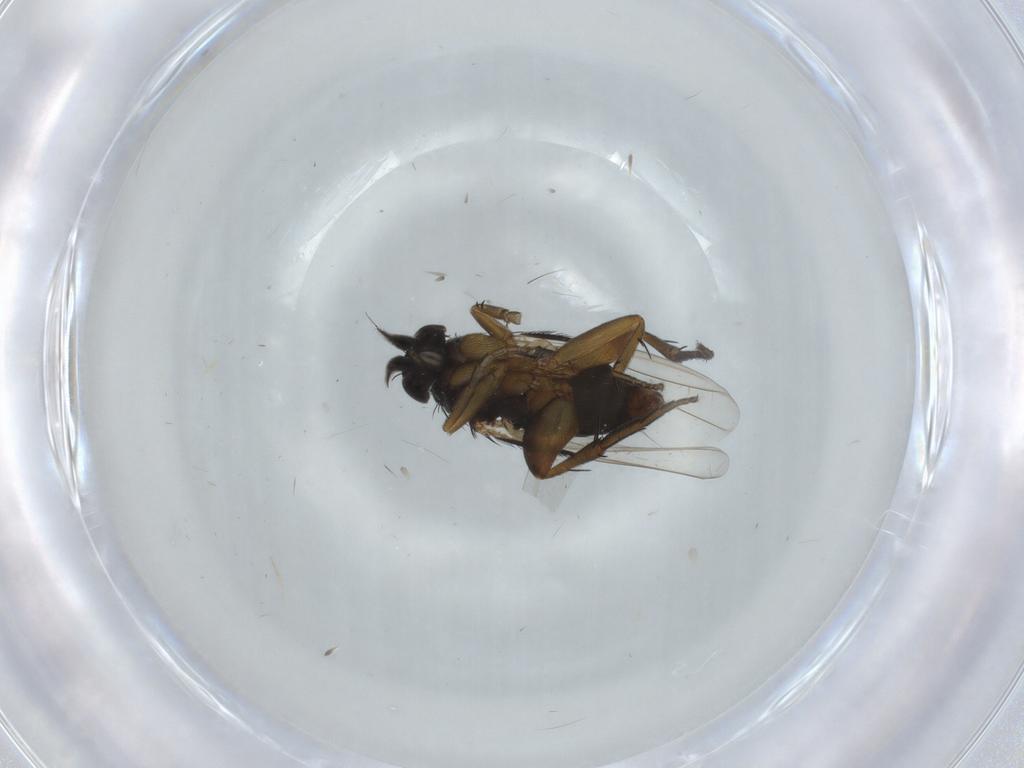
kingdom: Animalia
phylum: Arthropoda
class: Insecta
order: Diptera
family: Phoridae
